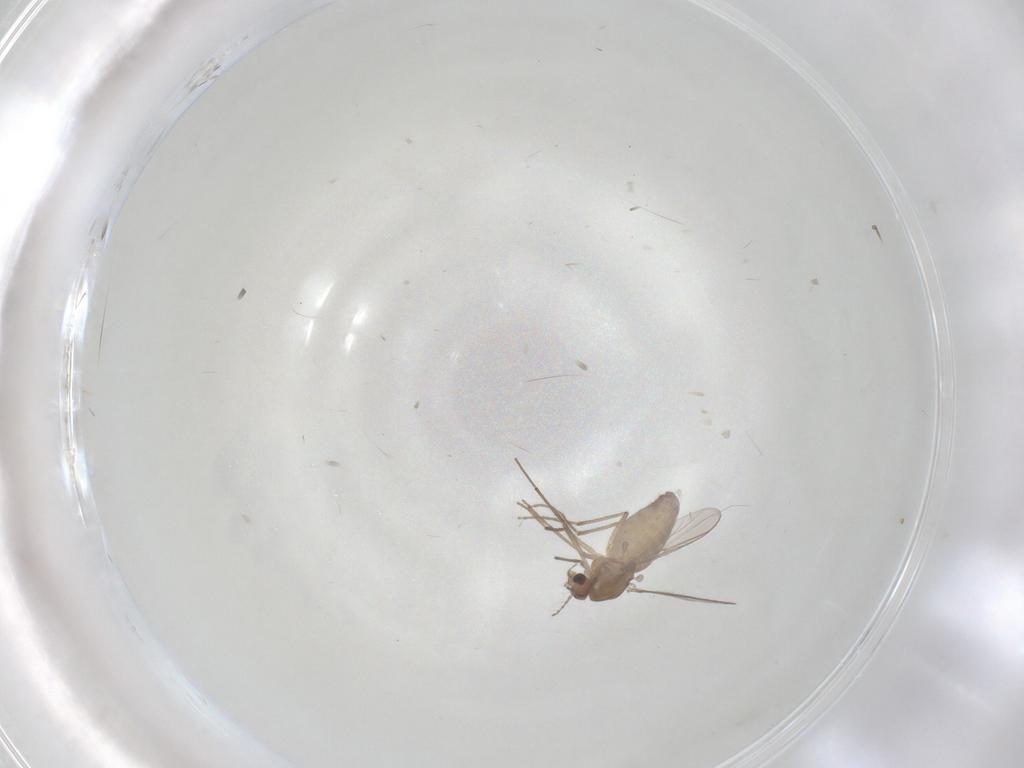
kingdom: Animalia
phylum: Arthropoda
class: Insecta
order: Diptera
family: Chironomidae
